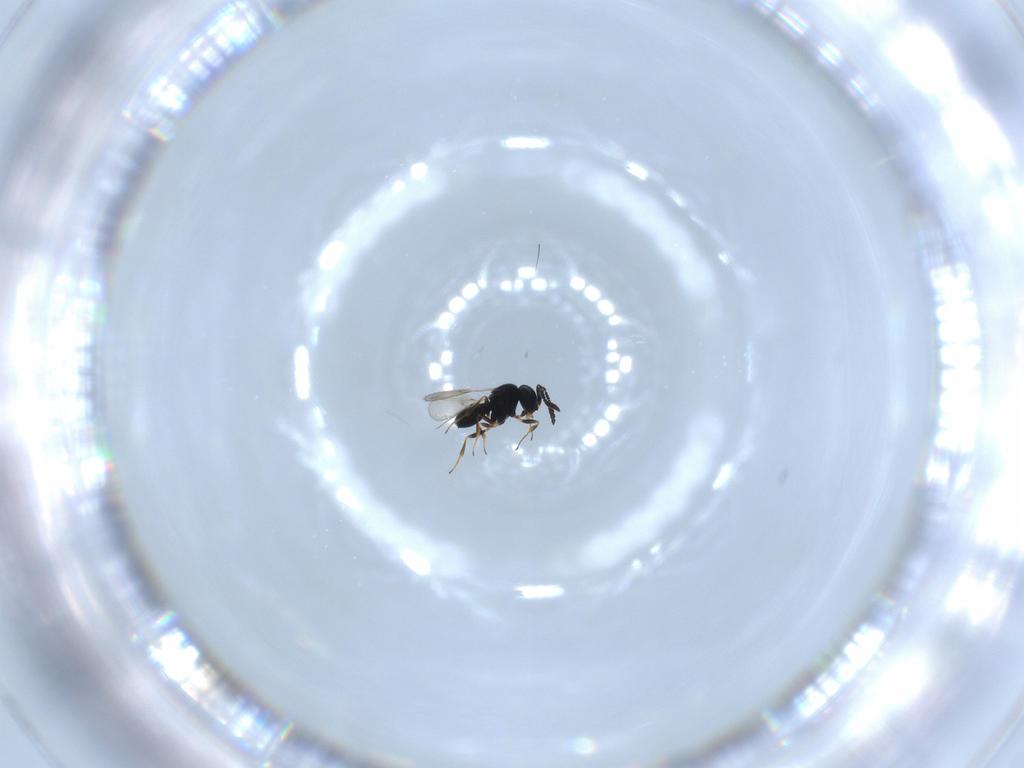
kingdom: Animalia
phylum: Arthropoda
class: Insecta
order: Hymenoptera
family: Scelionidae
